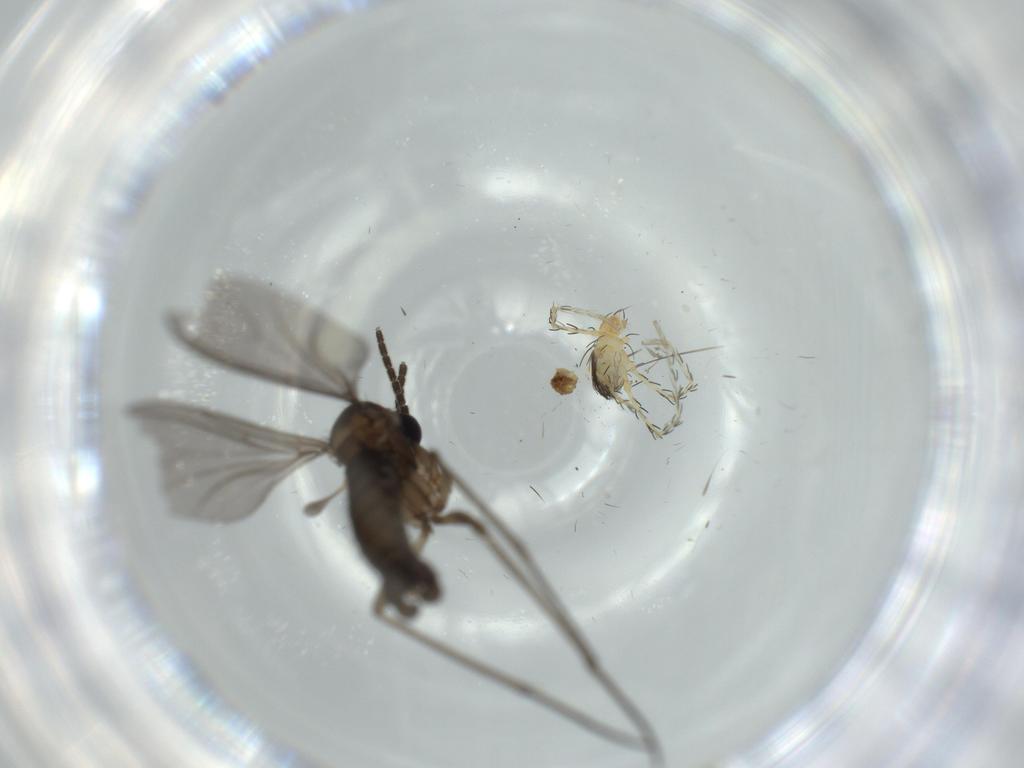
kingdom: Animalia
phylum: Arthropoda
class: Insecta
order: Diptera
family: Sciaridae
